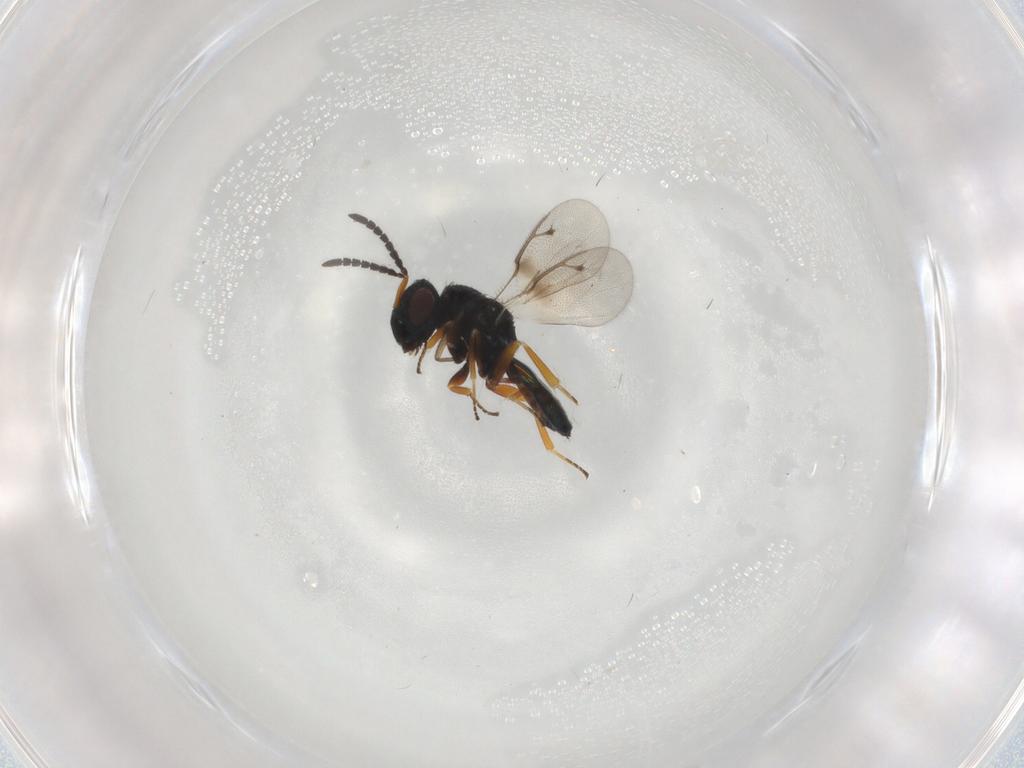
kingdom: Animalia
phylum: Arthropoda
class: Insecta
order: Hymenoptera
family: Pteromalidae
